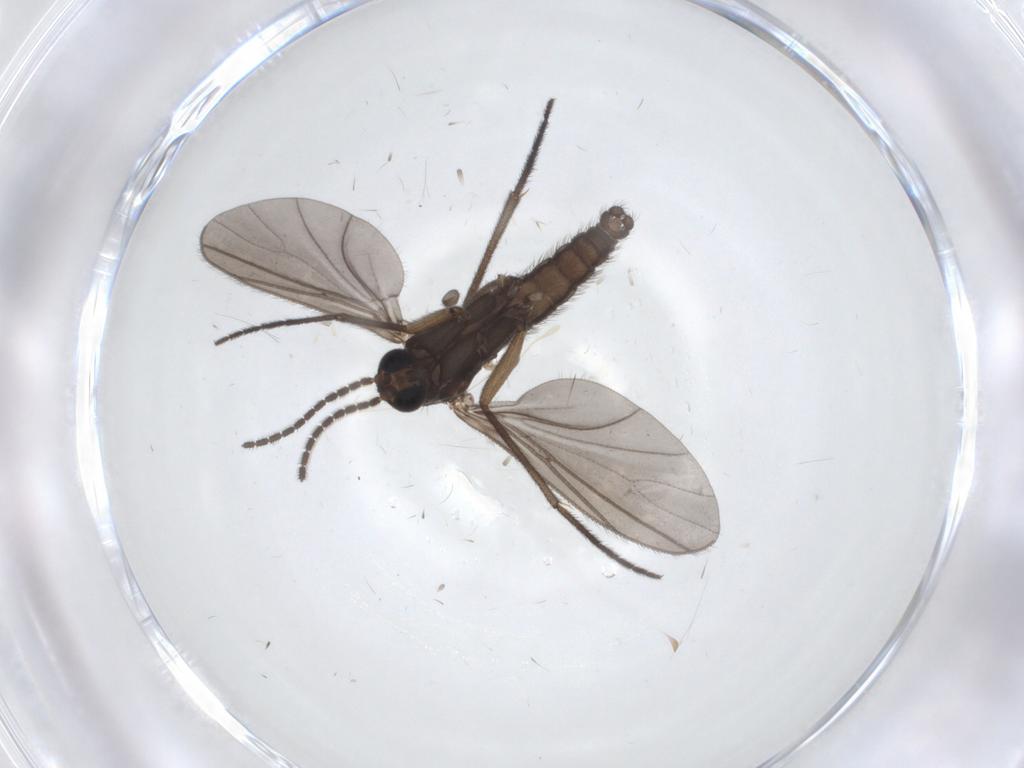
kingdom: Animalia
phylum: Arthropoda
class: Insecta
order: Diptera
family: Sciaridae
